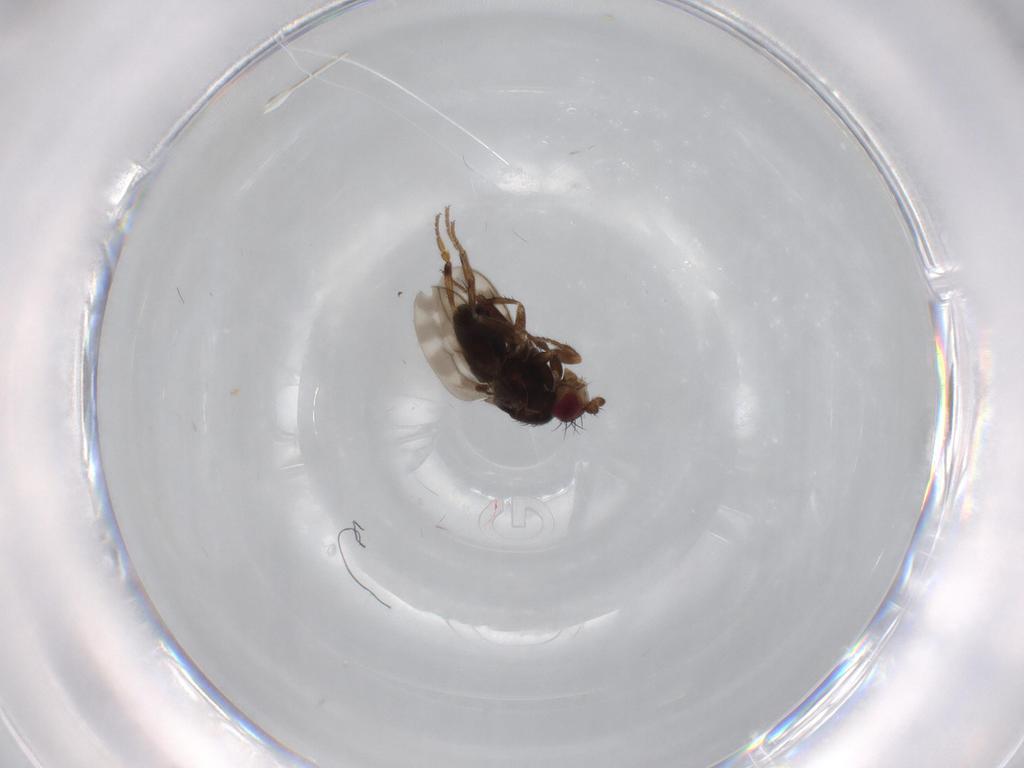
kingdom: Animalia
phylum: Arthropoda
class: Insecta
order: Diptera
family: Sphaeroceridae
